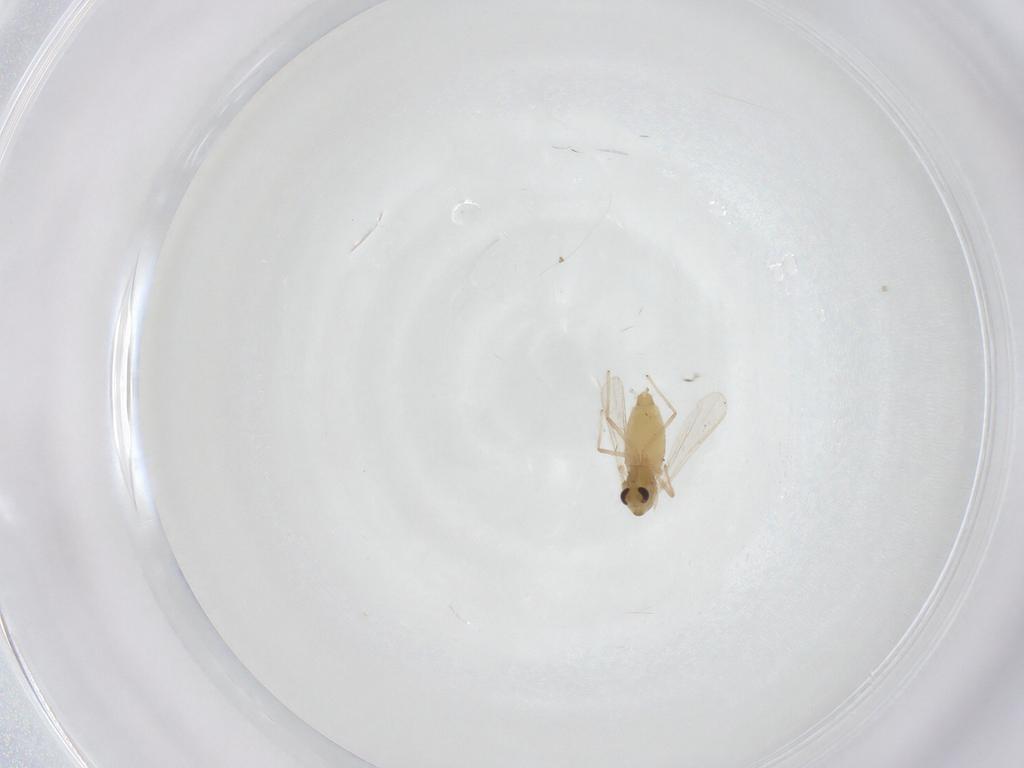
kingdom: Animalia
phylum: Arthropoda
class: Insecta
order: Diptera
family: Chironomidae
